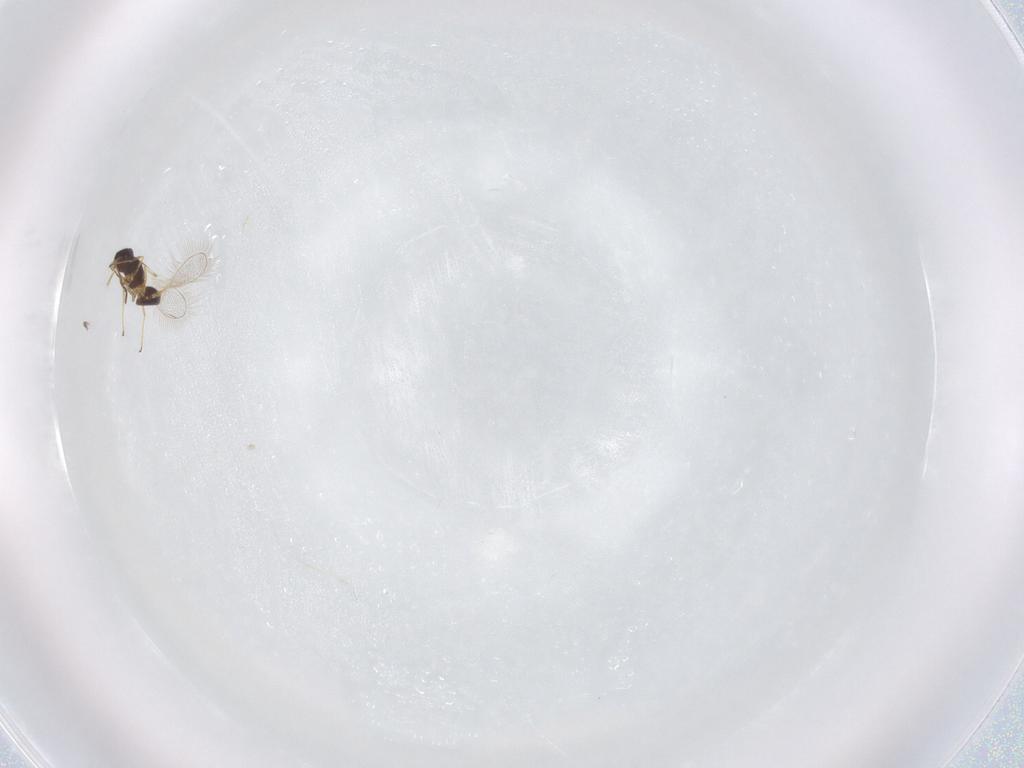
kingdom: Animalia
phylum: Arthropoda
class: Insecta
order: Hymenoptera
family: Mymaridae
